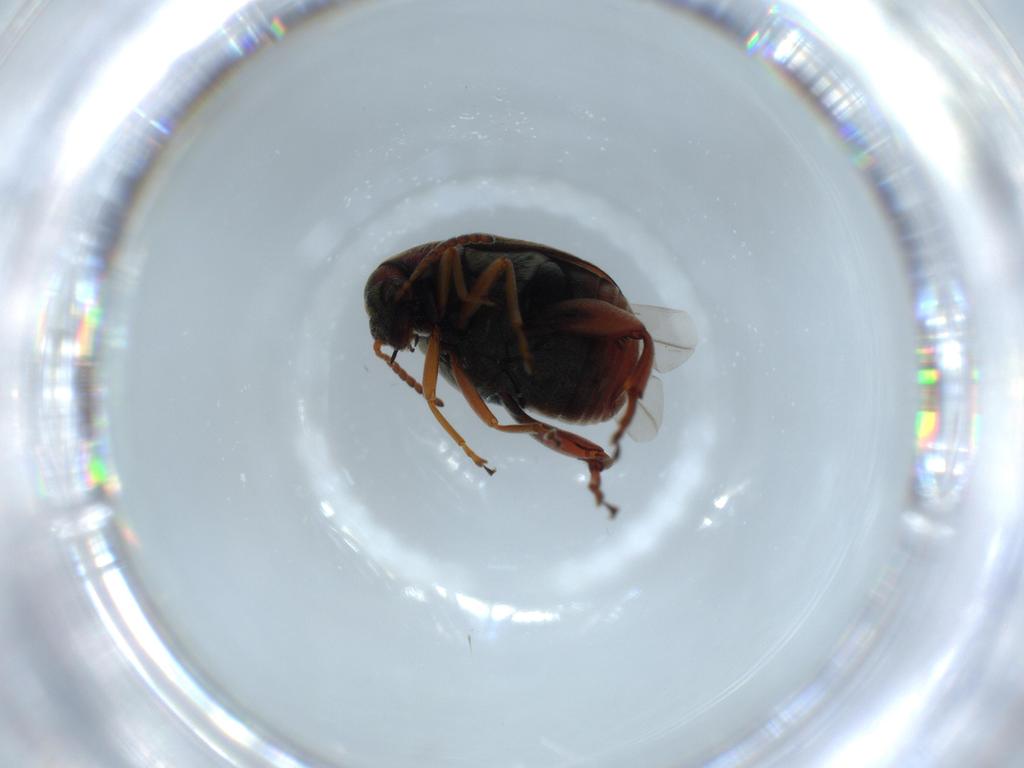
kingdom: Animalia
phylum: Arthropoda
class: Insecta
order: Coleoptera
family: Chrysomelidae
